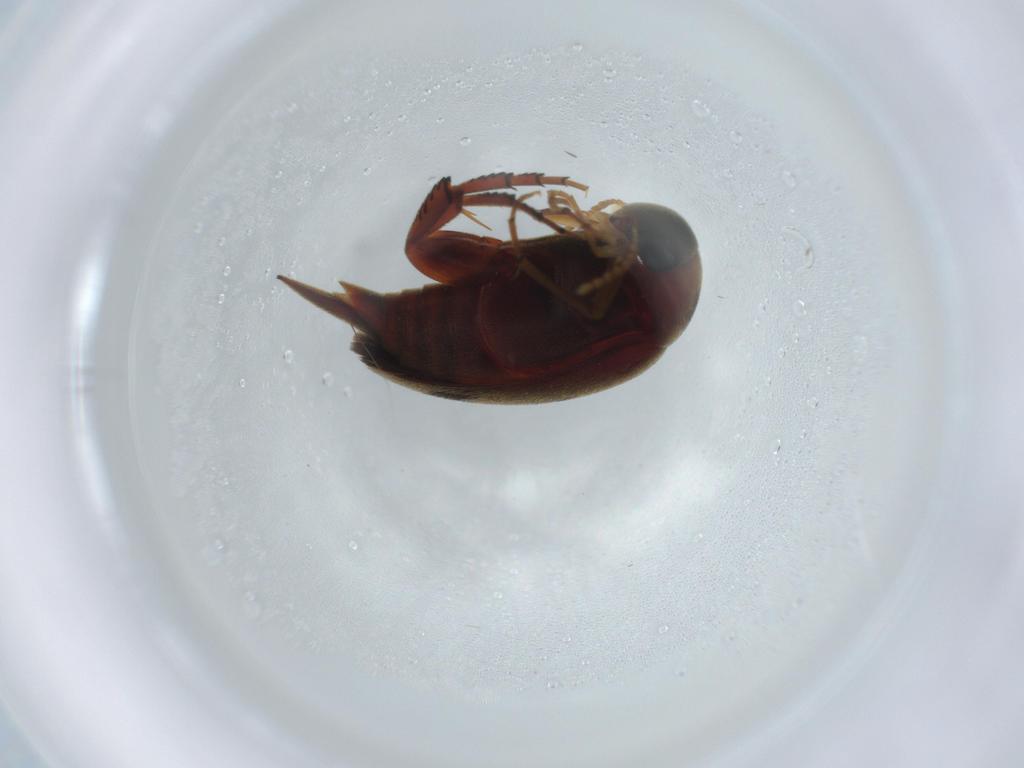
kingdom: Animalia
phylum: Arthropoda
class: Insecta
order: Coleoptera
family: Mordellidae
